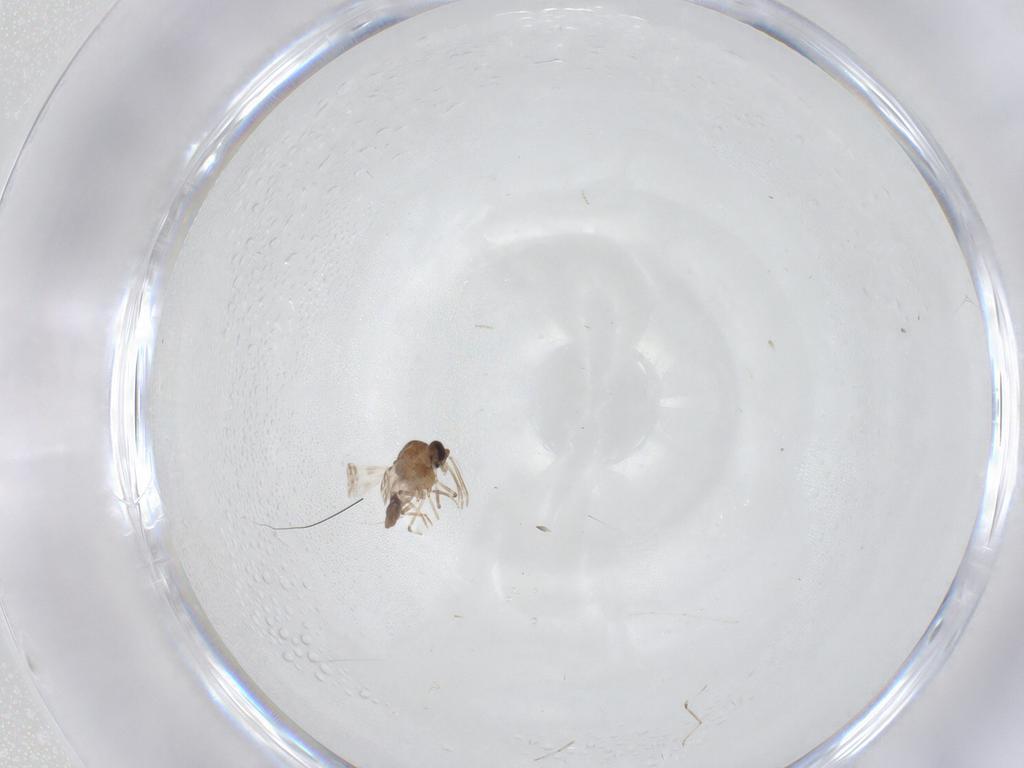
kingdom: Animalia
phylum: Arthropoda
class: Insecta
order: Diptera
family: Ceratopogonidae
